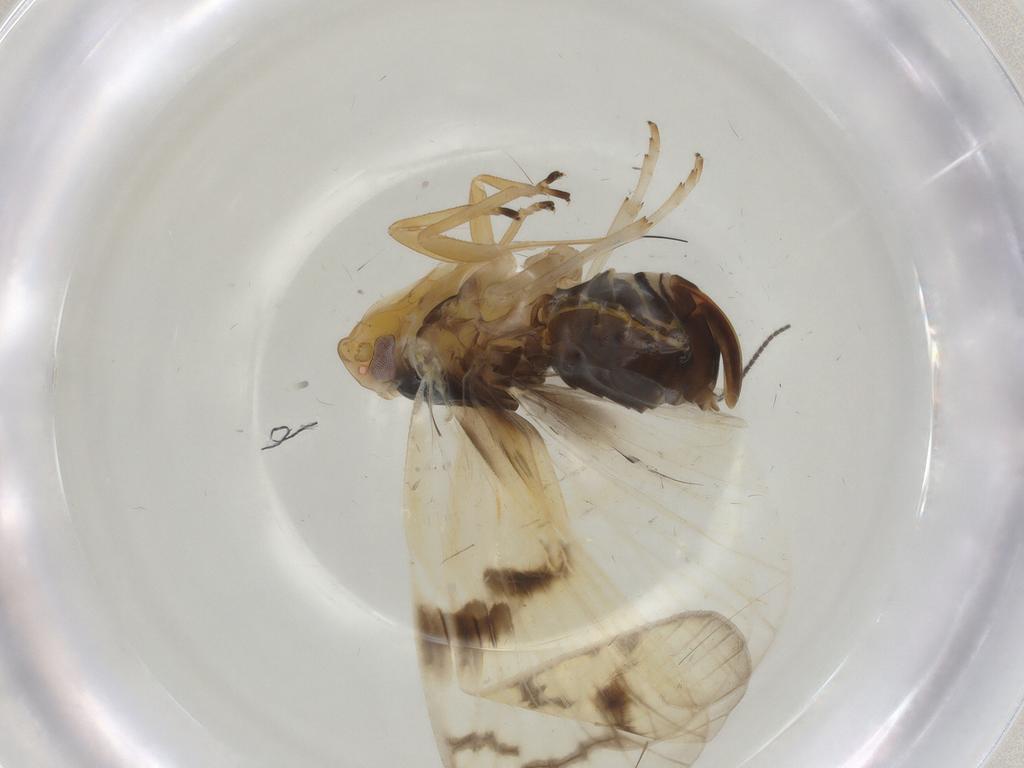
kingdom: Animalia
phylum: Arthropoda
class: Insecta
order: Hemiptera
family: Cixiidae
